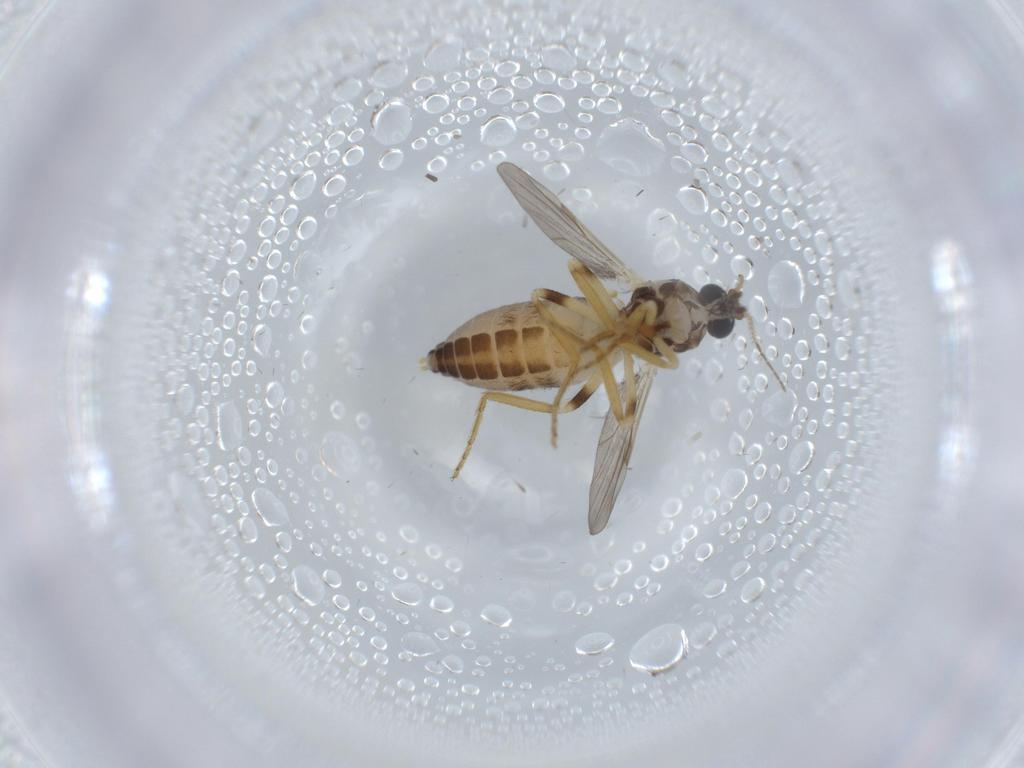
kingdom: Animalia
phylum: Arthropoda
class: Insecta
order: Diptera
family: Ceratopogonidae
